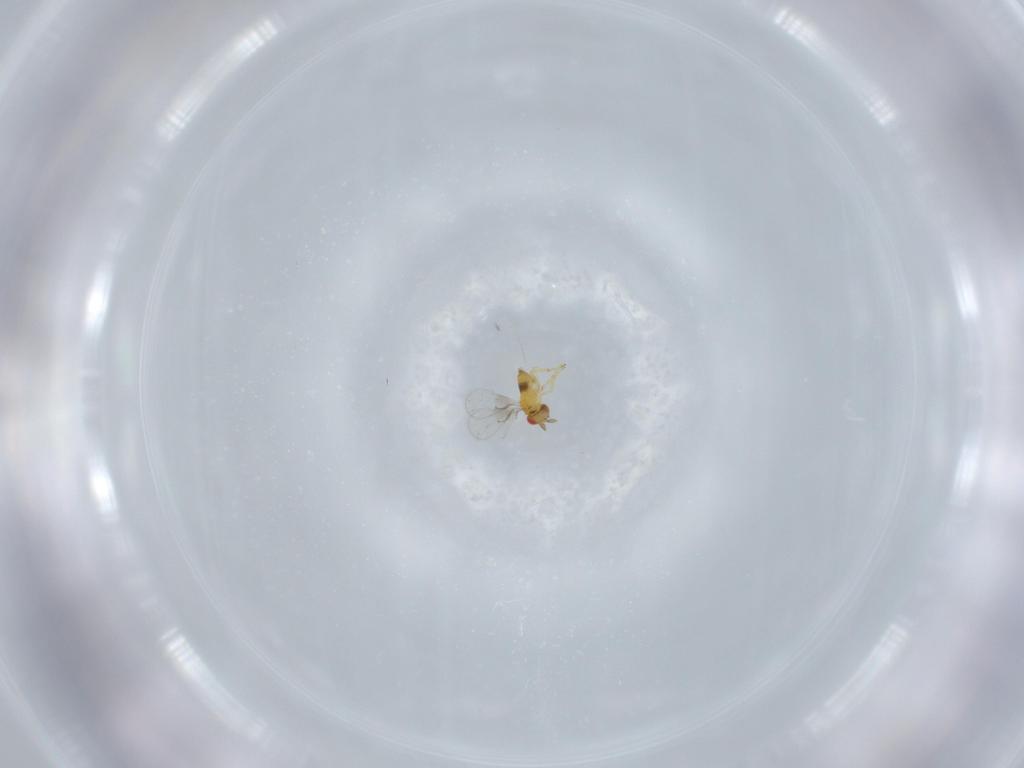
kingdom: Animalia
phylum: Arthropoda
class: Insecta
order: Hymenoptera
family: Trichogrammatidae
